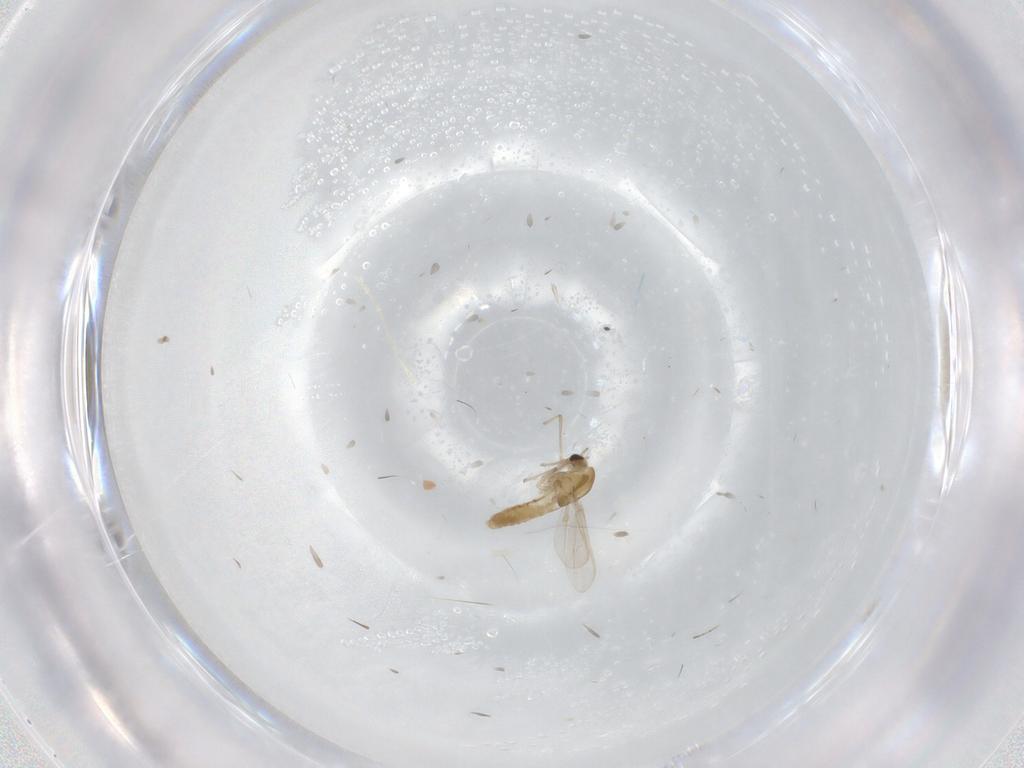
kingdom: Animalia
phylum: Arthropoda
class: Insecta
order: Diptera
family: Chironomidae
